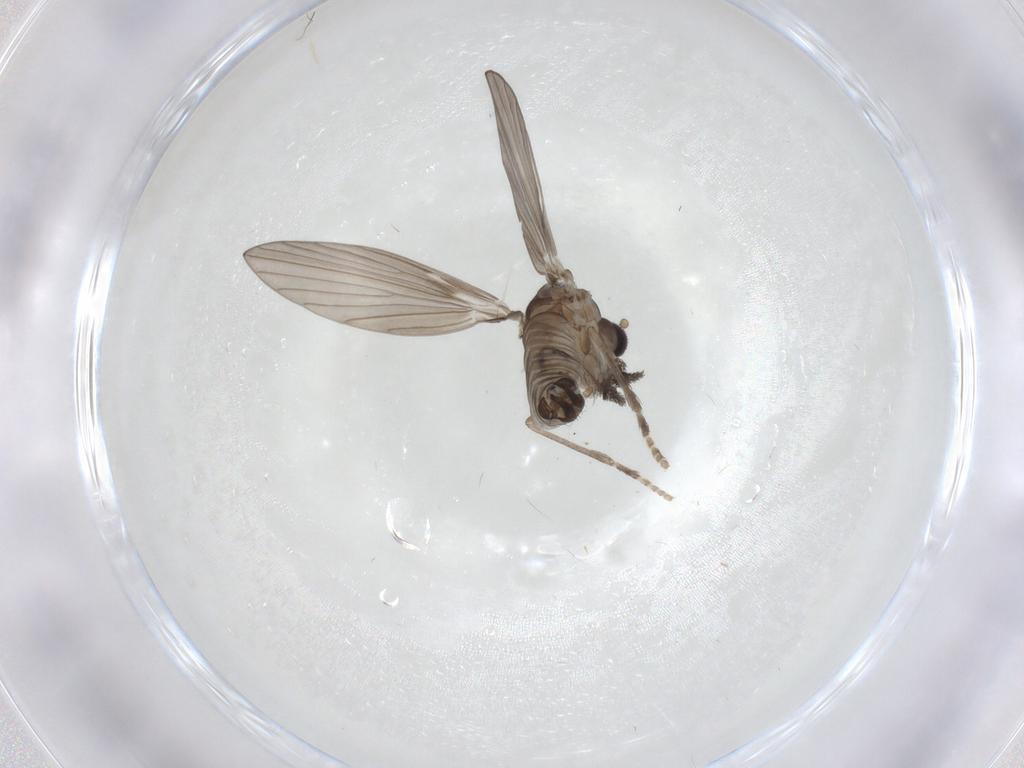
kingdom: Animalia
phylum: Arthropoda
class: Insecta
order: Diptera
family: Psychodidae
